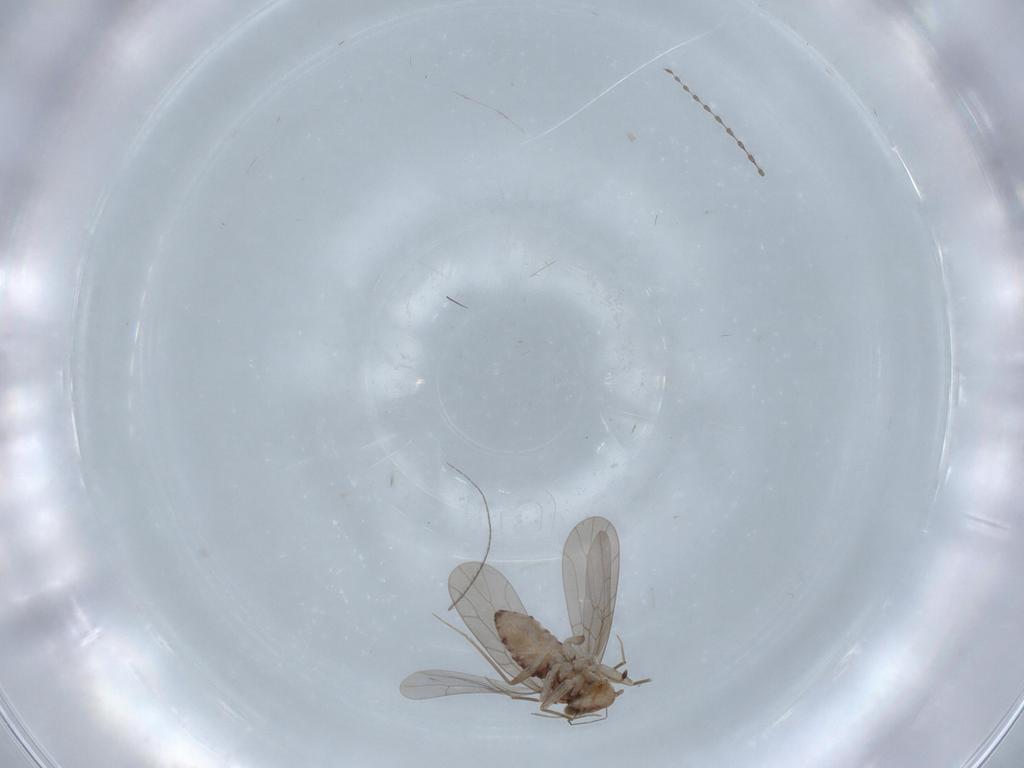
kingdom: Animalia
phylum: Arthropoda
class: Insecta
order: Psocodea
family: Lepidopsocidae
